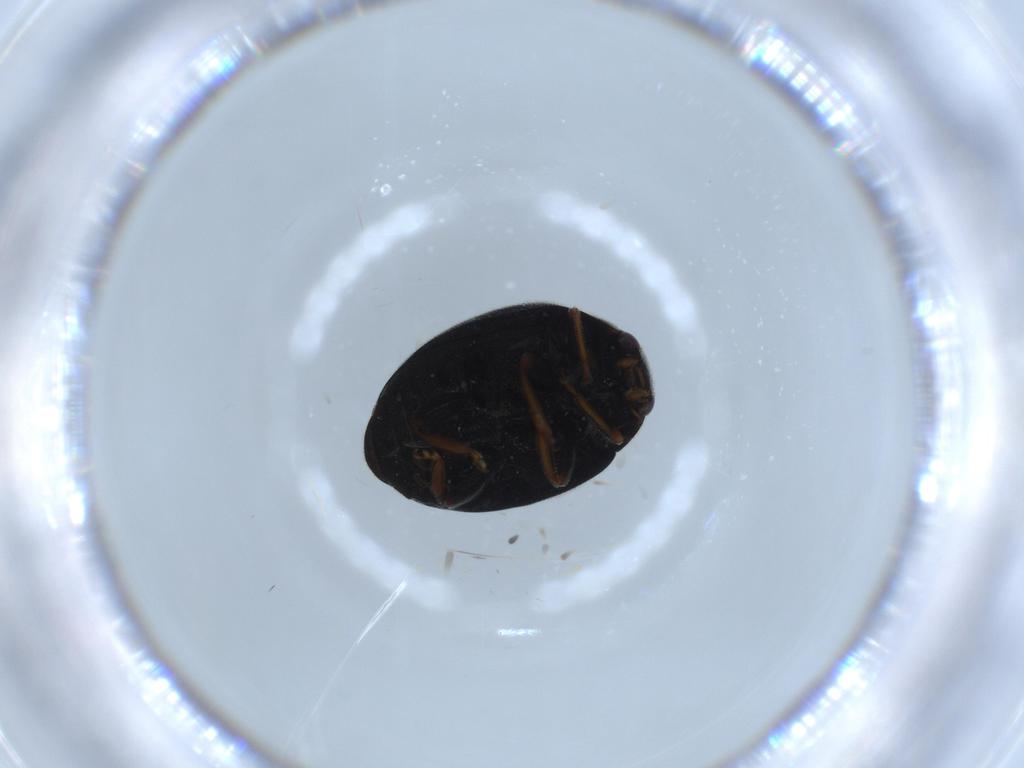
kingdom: Animalia
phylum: Arthropoda
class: Insecta
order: Coleoptera
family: Coccinellidae
